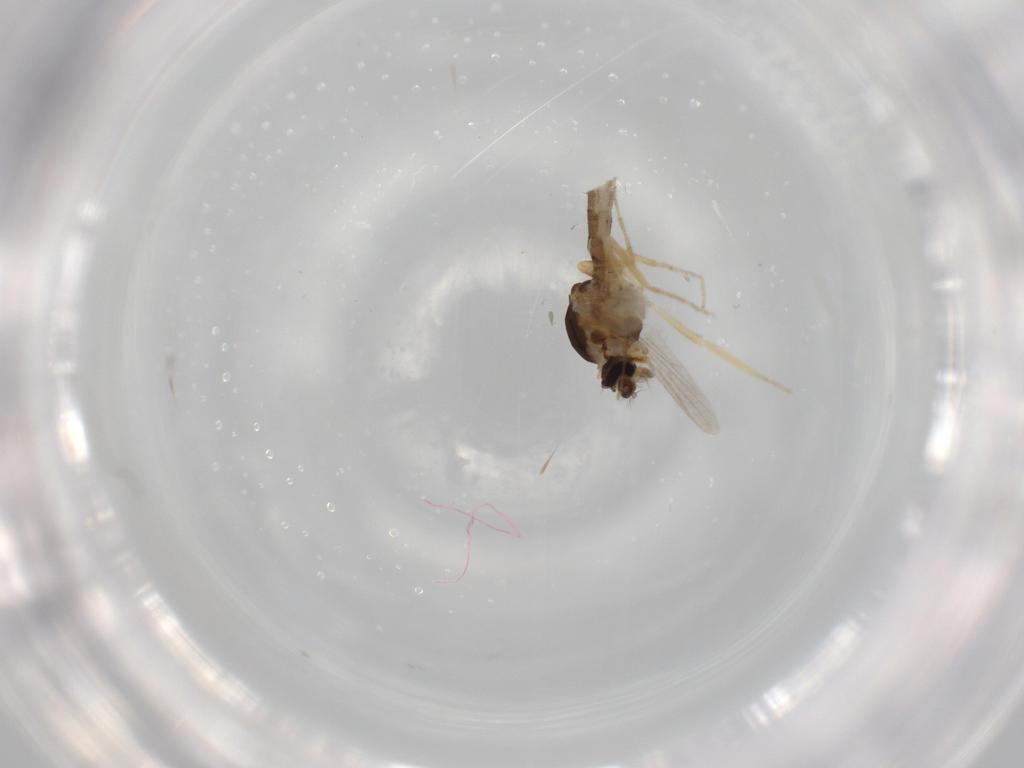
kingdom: Animalia
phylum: Arthropoda
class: Insecta
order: Diptera
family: Ceratopogonidae
